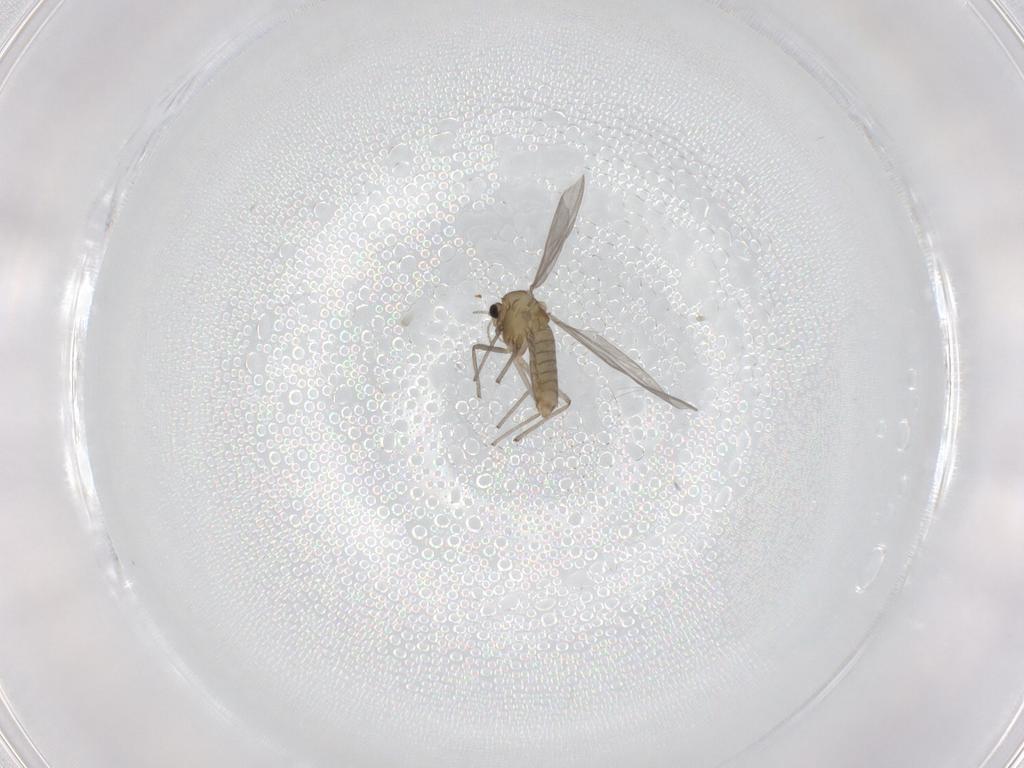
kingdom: Animalia
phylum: Arthropoda
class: Insecta
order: Diptera
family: Chironomidae
